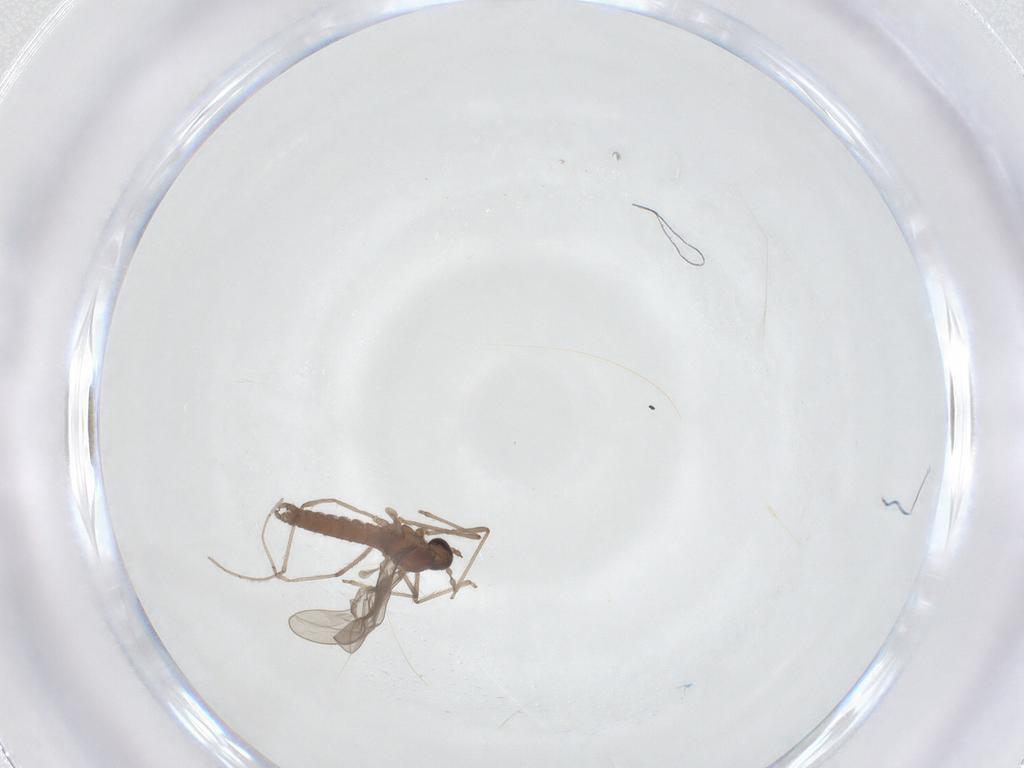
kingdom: Animalia
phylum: Arthropoda
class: Insecta
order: Diptera
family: Cecidomyiidae
